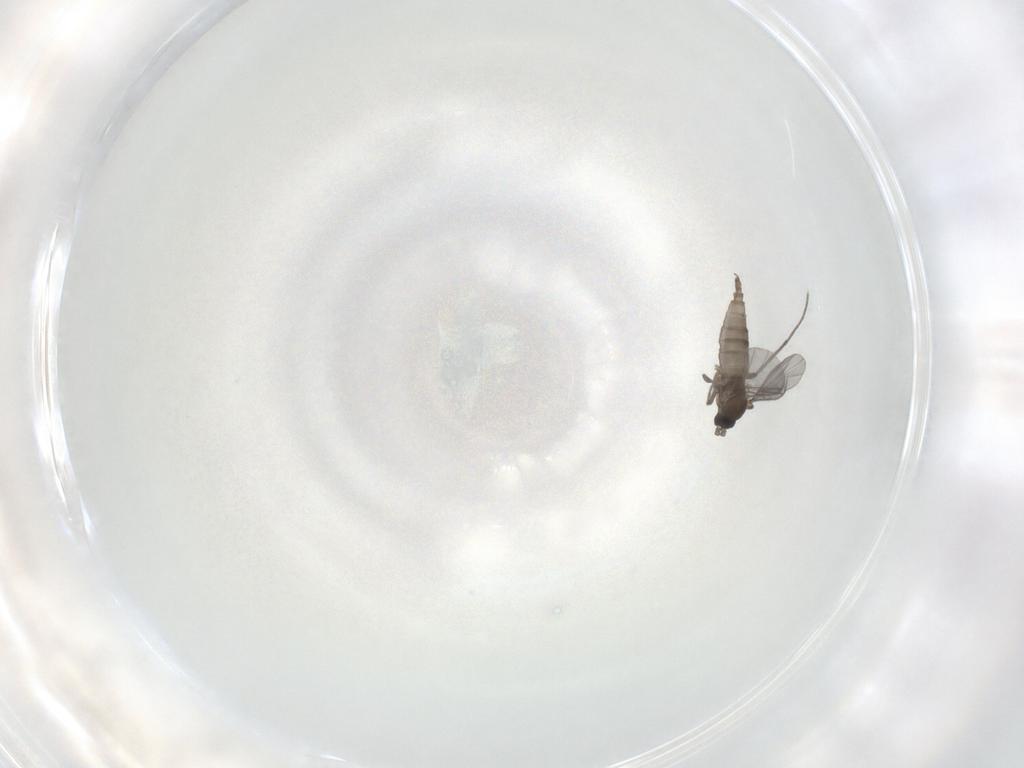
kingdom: Animalia
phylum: Arthropoda
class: Insecta
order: Diptera
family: Sciaridae
